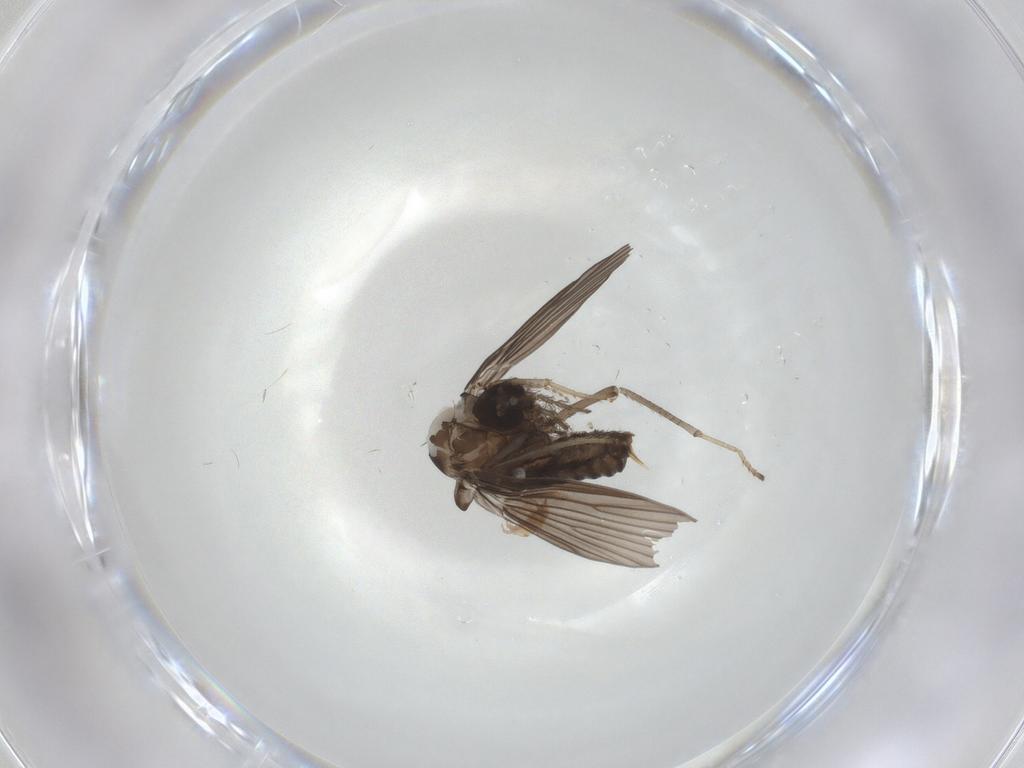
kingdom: Animalia
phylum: Arthropoda
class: Insecta
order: Diptera
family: Psychodidae
